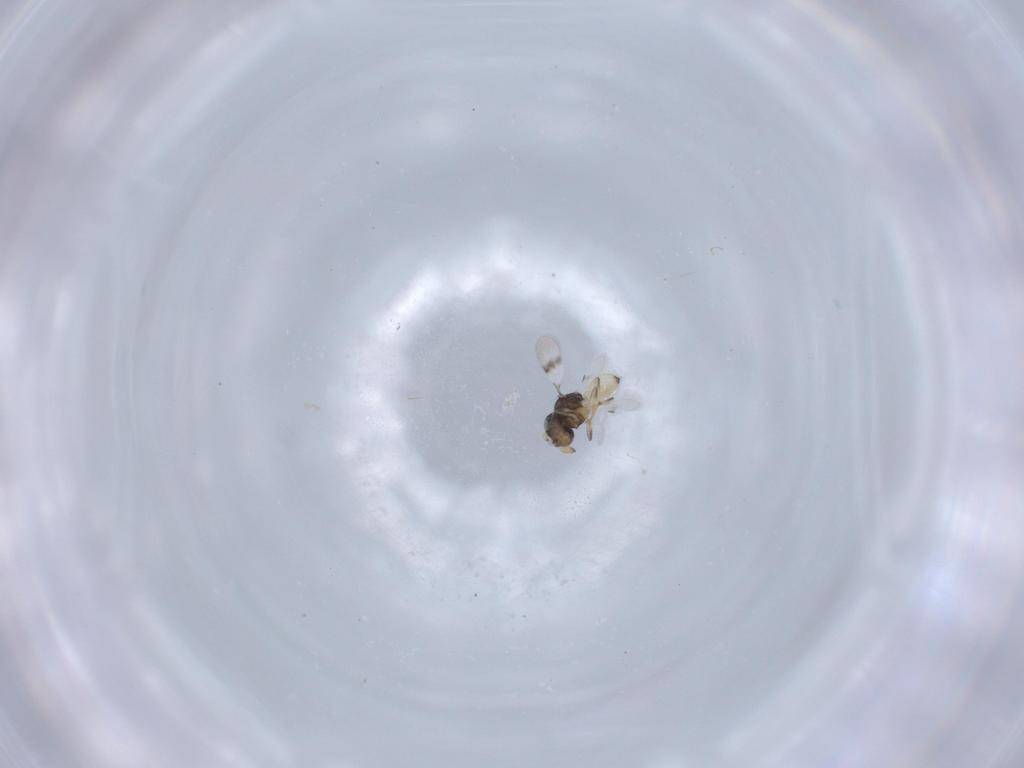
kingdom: Animalia
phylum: Arthropoda
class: Insecta
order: Hymenoptera
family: Scelionidae
